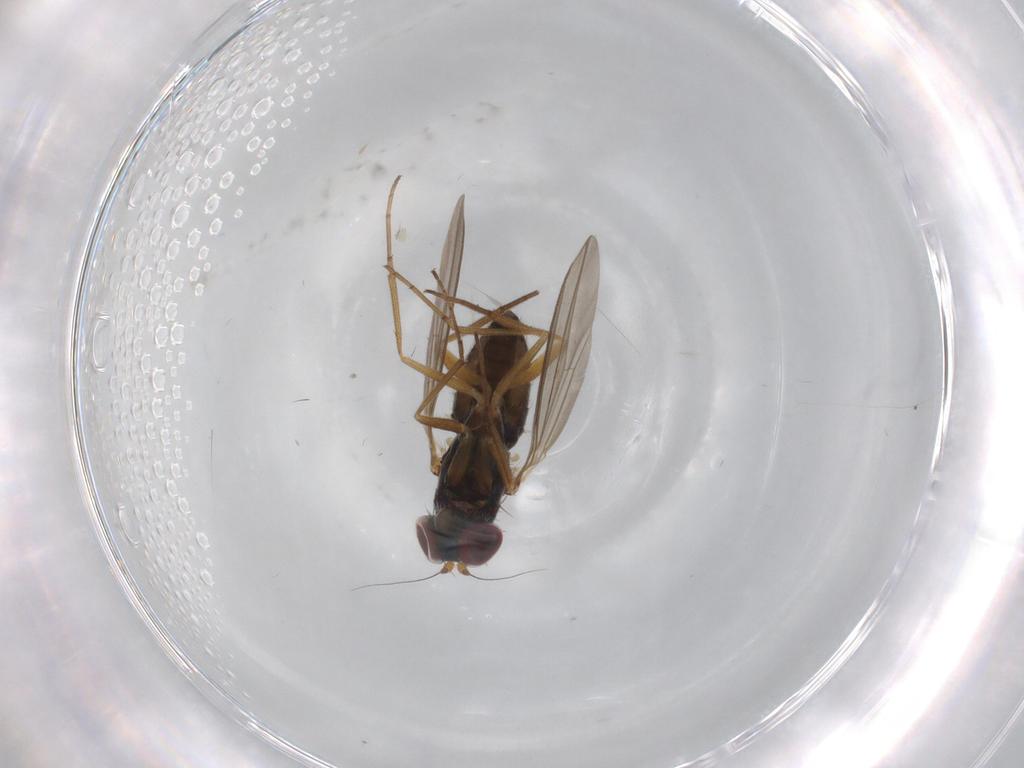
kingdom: Animalia
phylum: Arthropoda
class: Insecta
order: Diptera
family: Dolichopodidae
